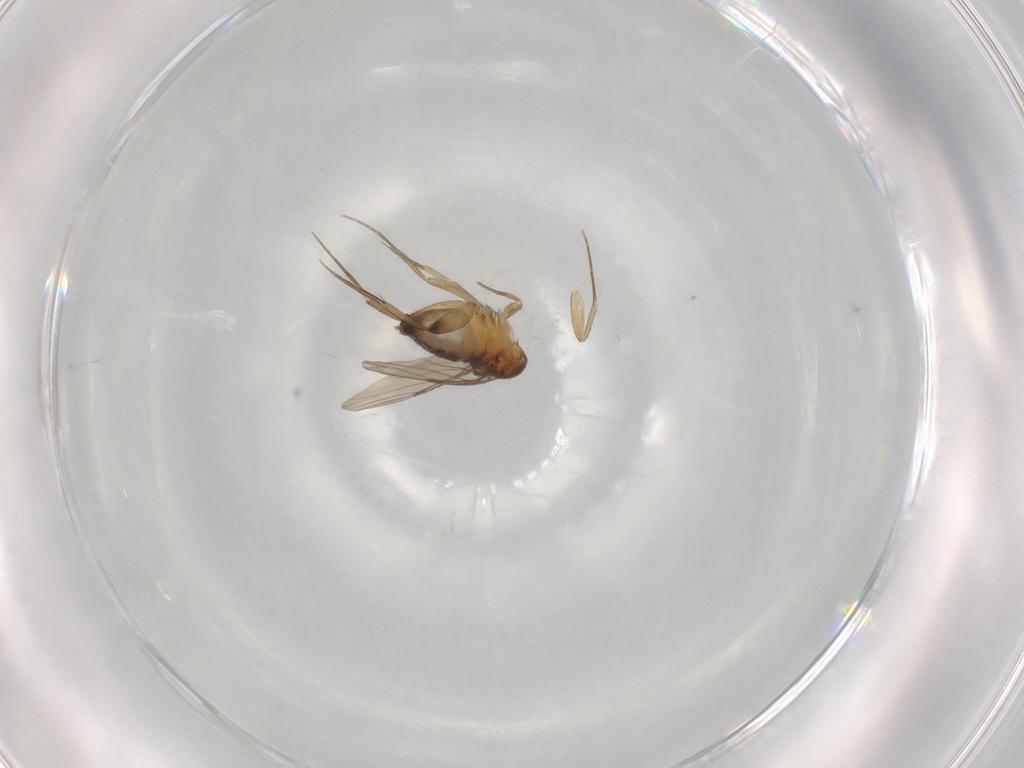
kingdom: Animalia
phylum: Arthropoda
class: Insecta
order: Diptera
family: Phoridae
